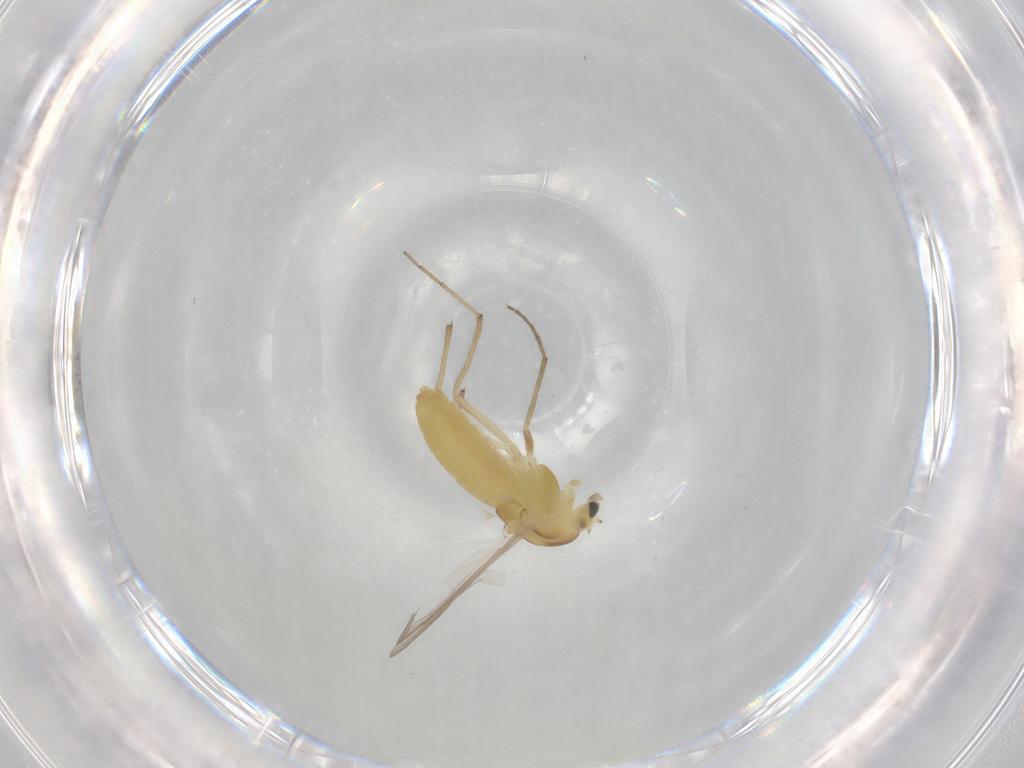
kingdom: Animalia
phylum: Arthropoda
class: Insecta
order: Diptera
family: Chironomidae
